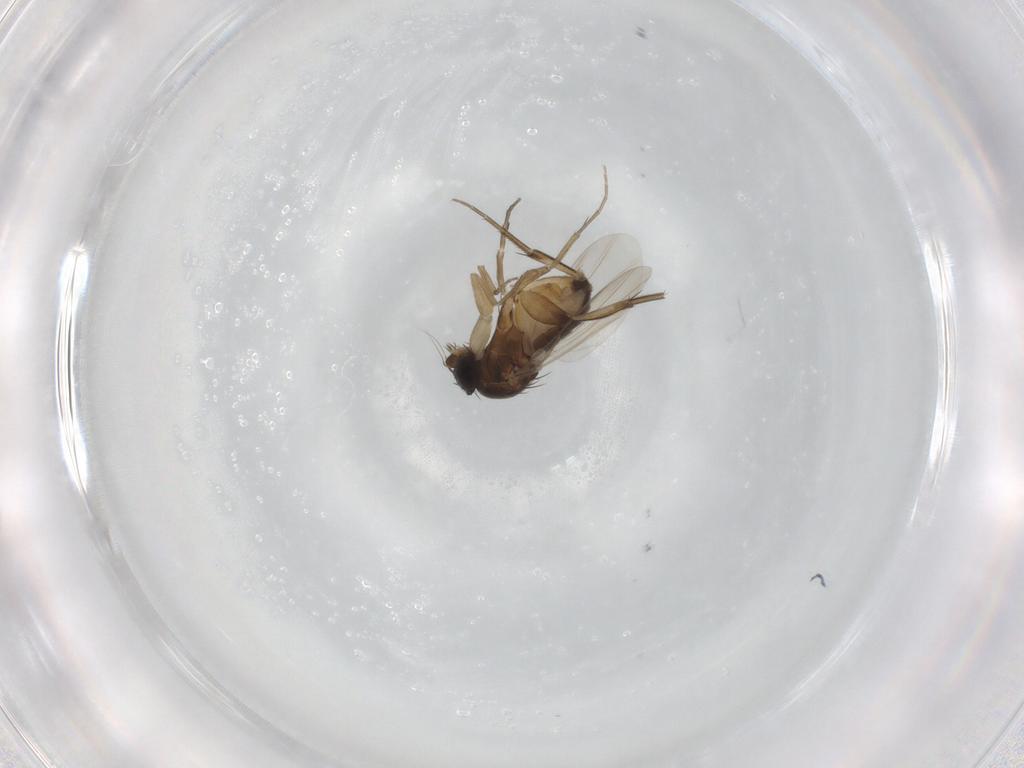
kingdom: Animalia
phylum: Arthropoda
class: Insecta
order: Diptera
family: Phoridae
